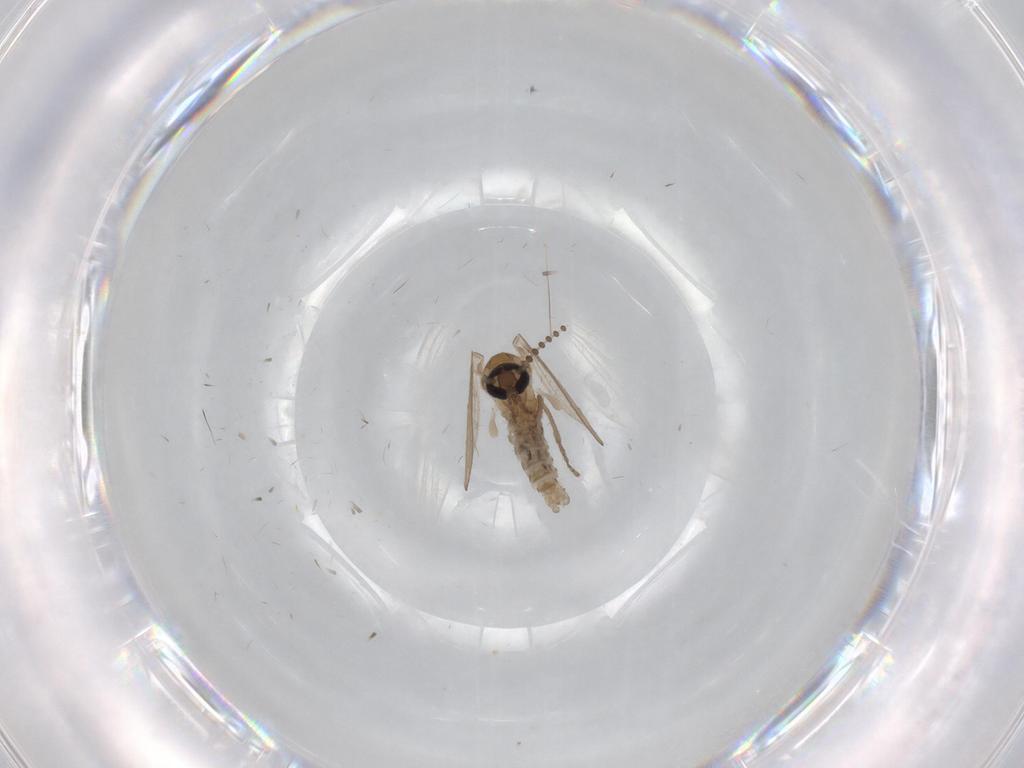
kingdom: Animalia
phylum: Arthropoda
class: Insecta
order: Diptera
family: Psychodidae
